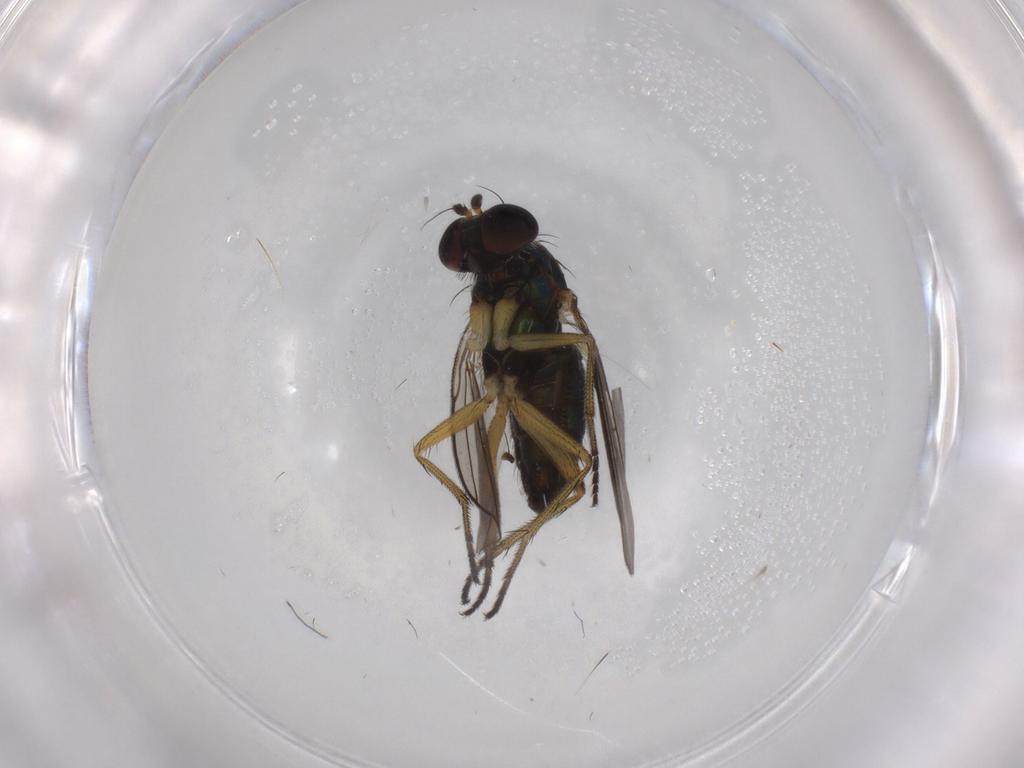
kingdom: Animalia
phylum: Arthropoda
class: Insecta
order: Diptera
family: Dolichopodidae
